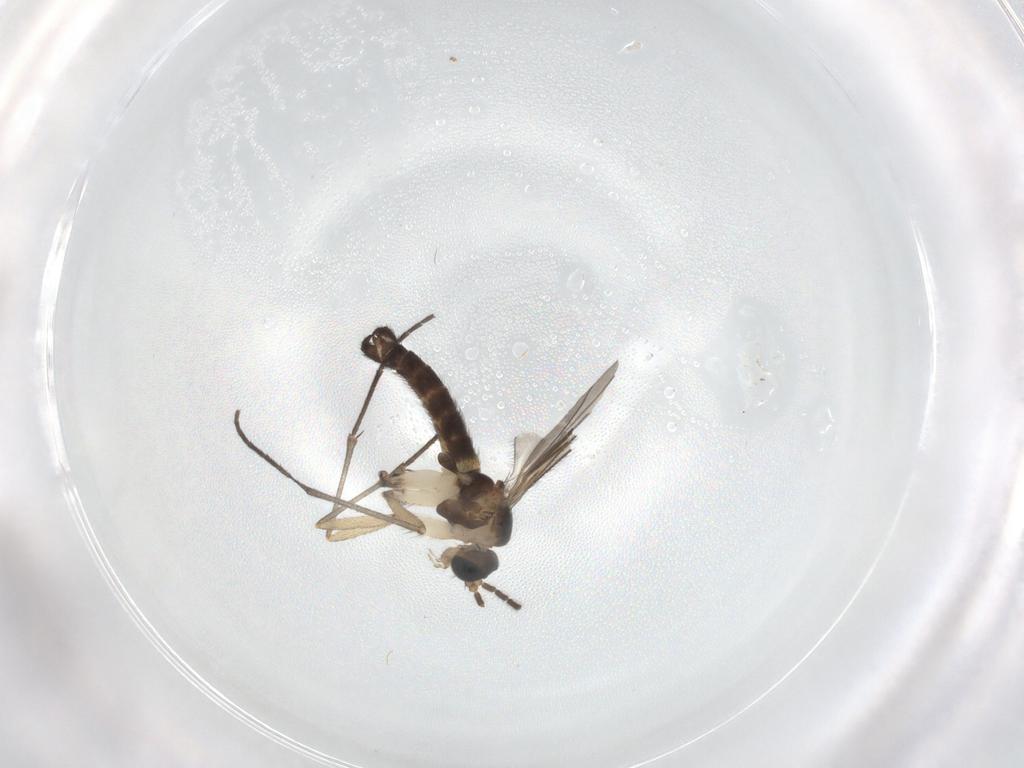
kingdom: Animalia
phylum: Arthropoda
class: Insecta
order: Diptera
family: Sciaridae
